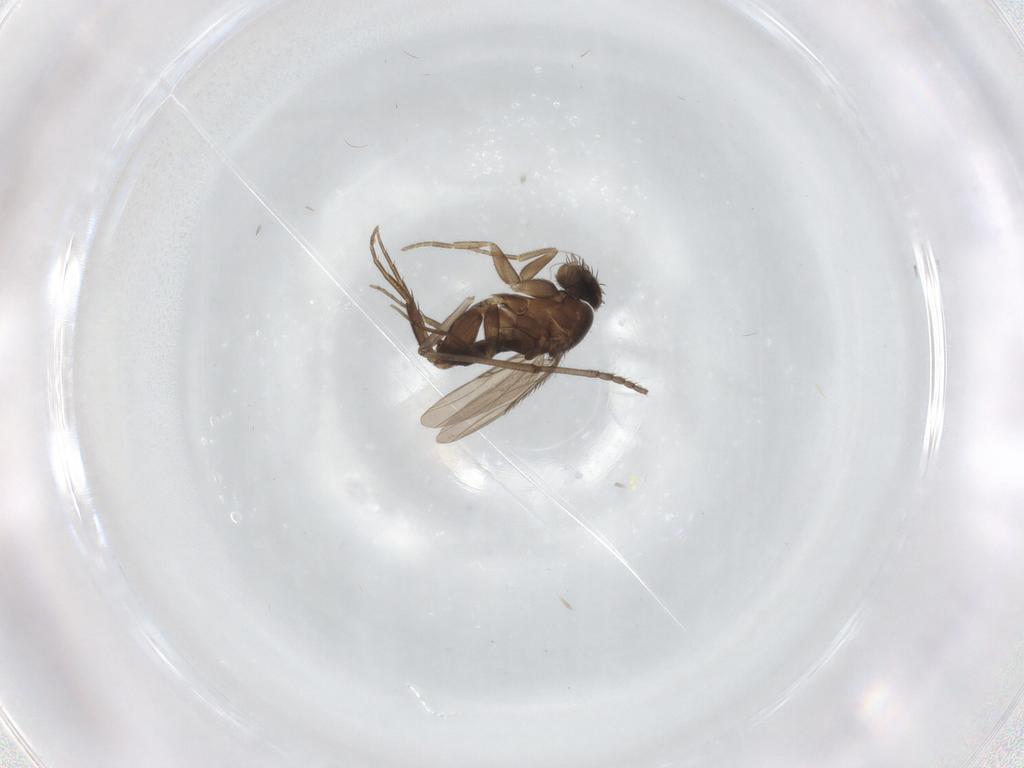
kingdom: Animalia
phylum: Arthropoda
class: Insecta
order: Diptera
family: Phoridae
